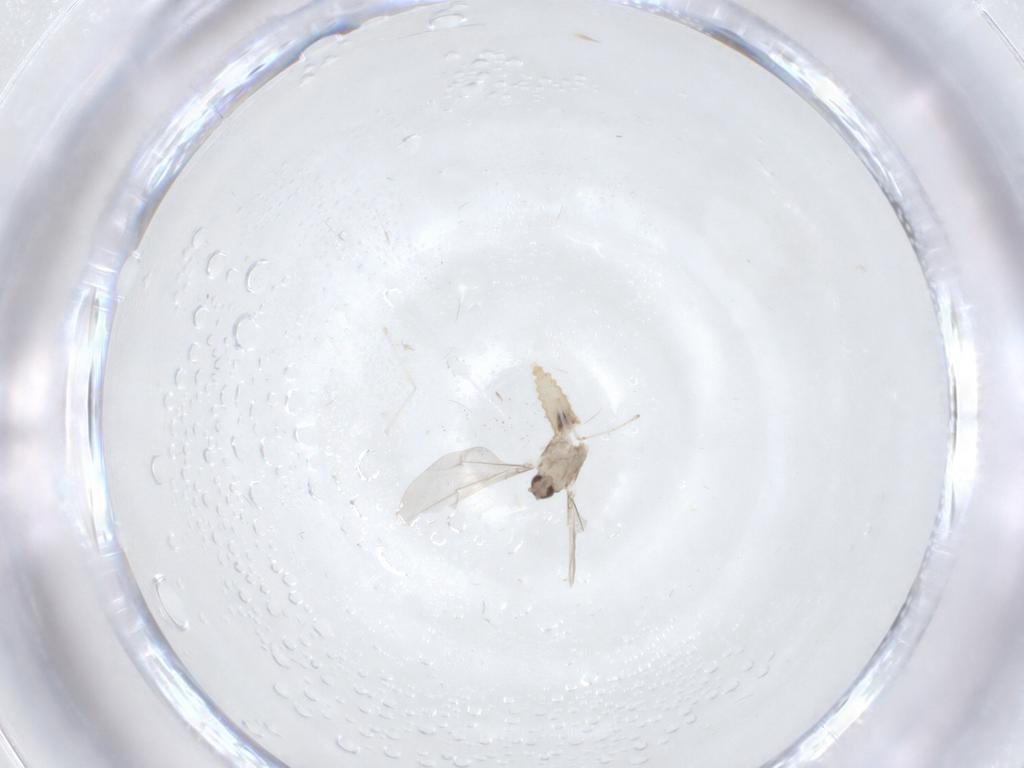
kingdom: Animalia
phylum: Arthropoda
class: Insecta
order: Diptera
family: Cecidomyiidae
